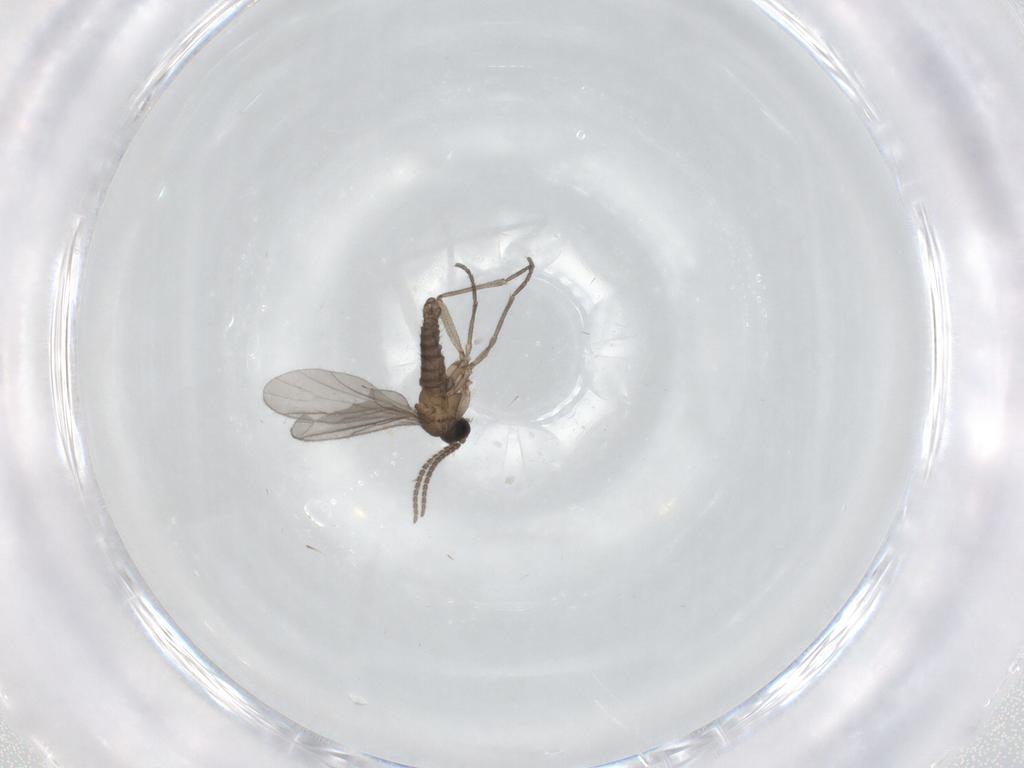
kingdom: Animalia
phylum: Arthropoda
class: Insecta
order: Diptera
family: Sciaridae
